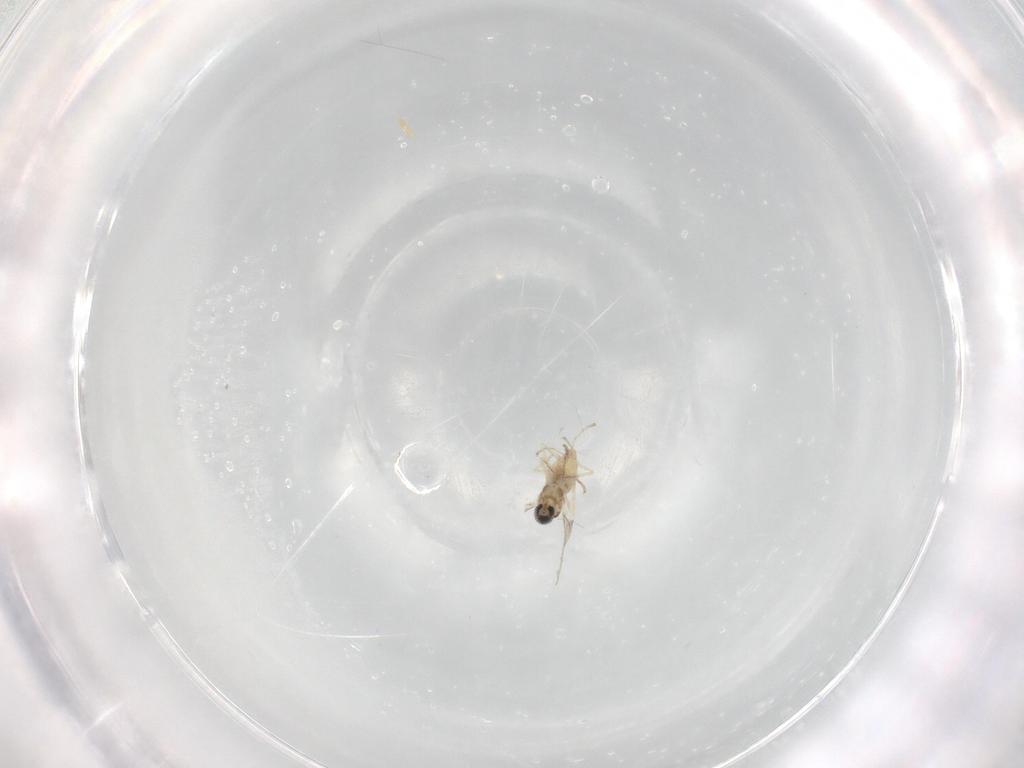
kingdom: Animalia
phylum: Arthropoda
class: Insecta
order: Diptera
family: Cecidomyiidae
